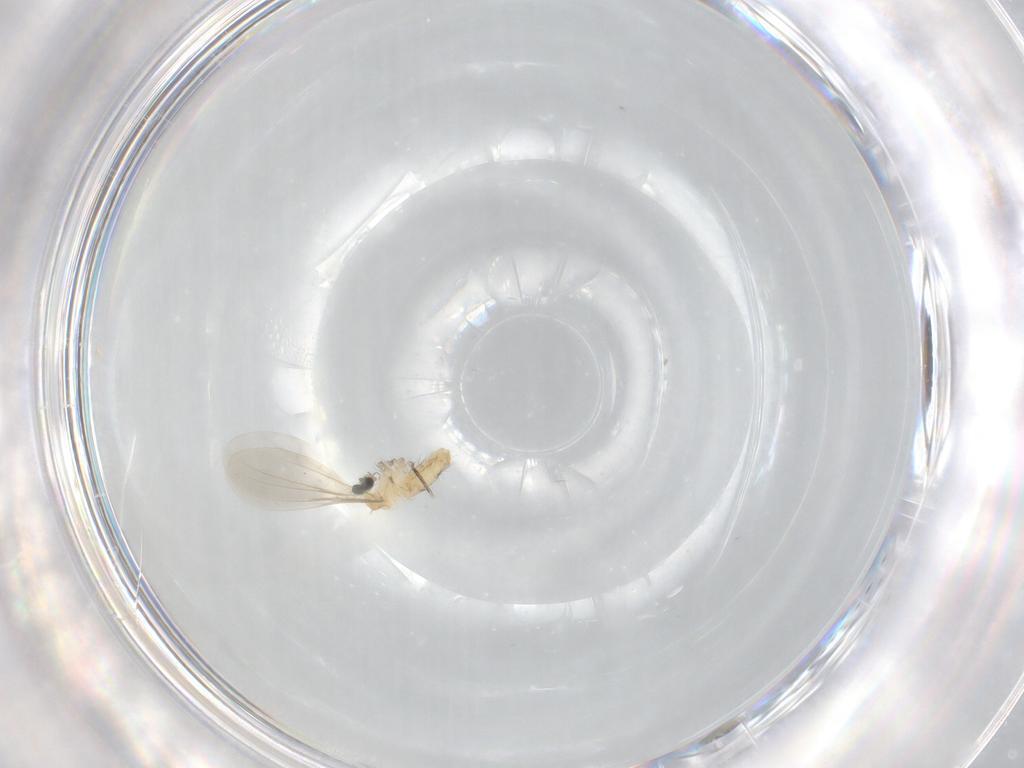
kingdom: Animalia
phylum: Arthropoda
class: Insecta
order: Diptera
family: Cecidomyiidae
